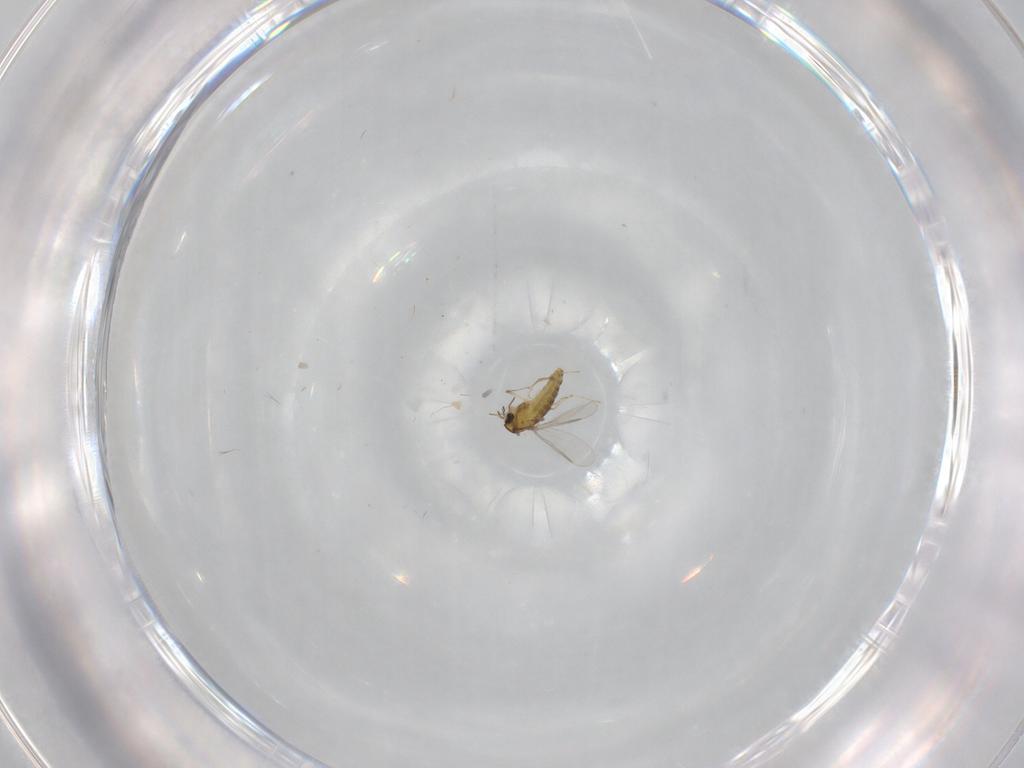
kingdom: Animalia
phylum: Arthropoda
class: Insecta
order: Diptera
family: Chironomidae
